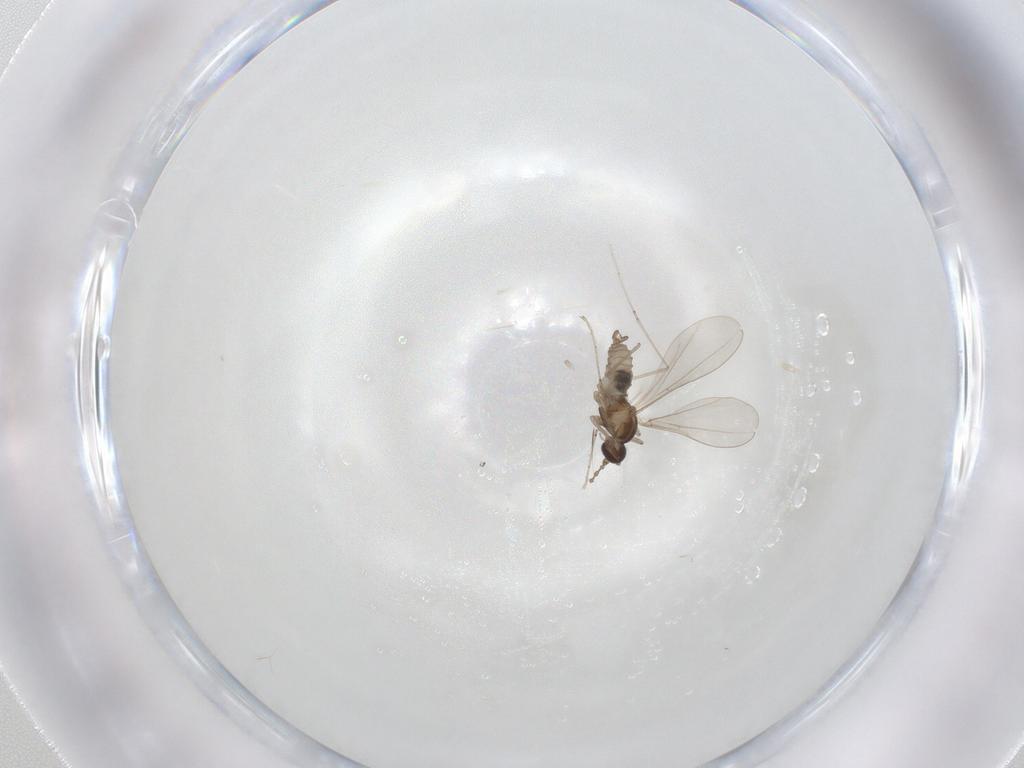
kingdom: Animalia
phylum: Arthropoda
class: Insecta
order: Diptera
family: Cecidomyiidae
